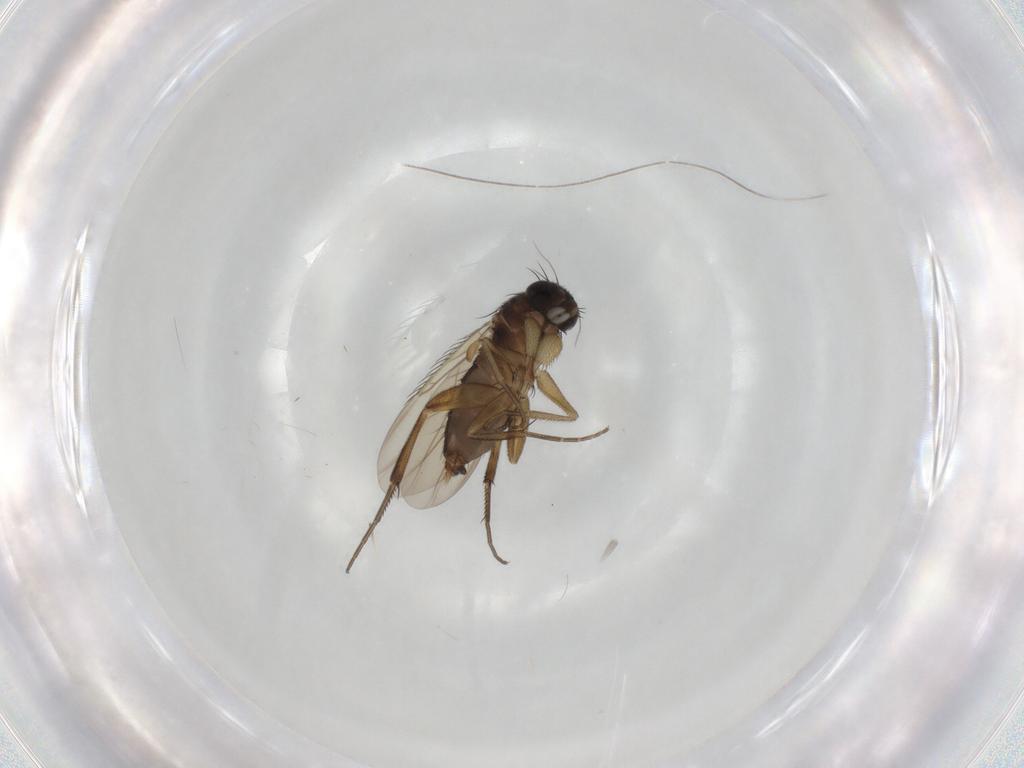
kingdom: Animalia
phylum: Arthropoda
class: Insecta
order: Diptera
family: Phoridae
